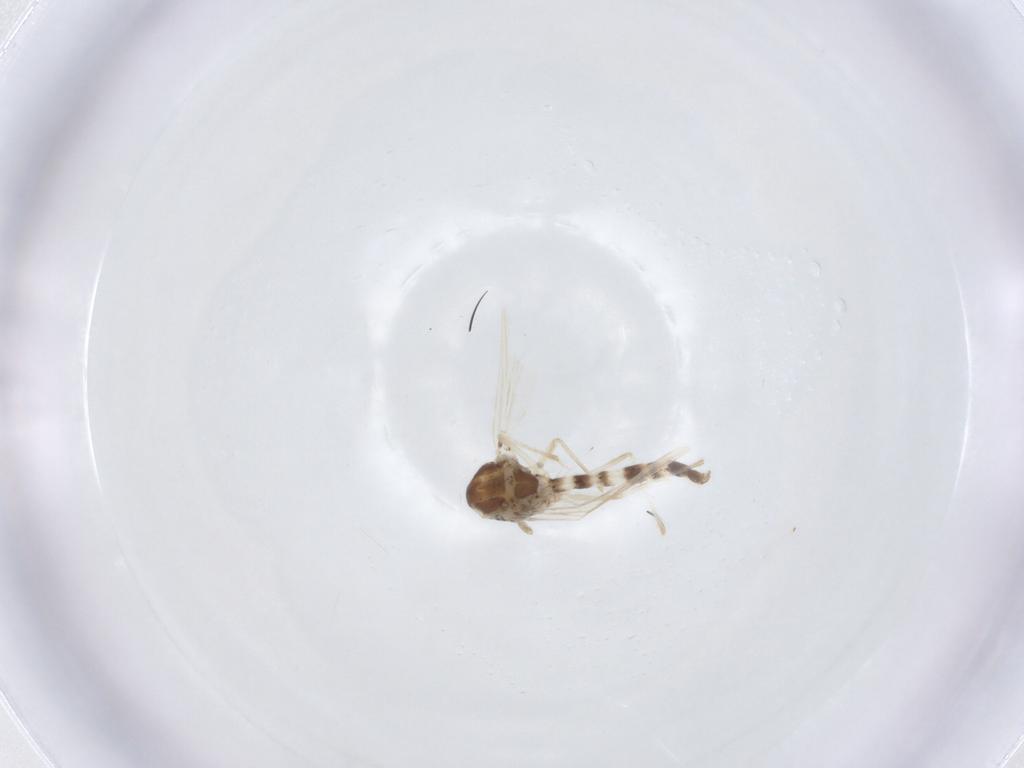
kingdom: Animalia
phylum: Arthropoda
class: Insecta
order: Diptera
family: Chironomidae
